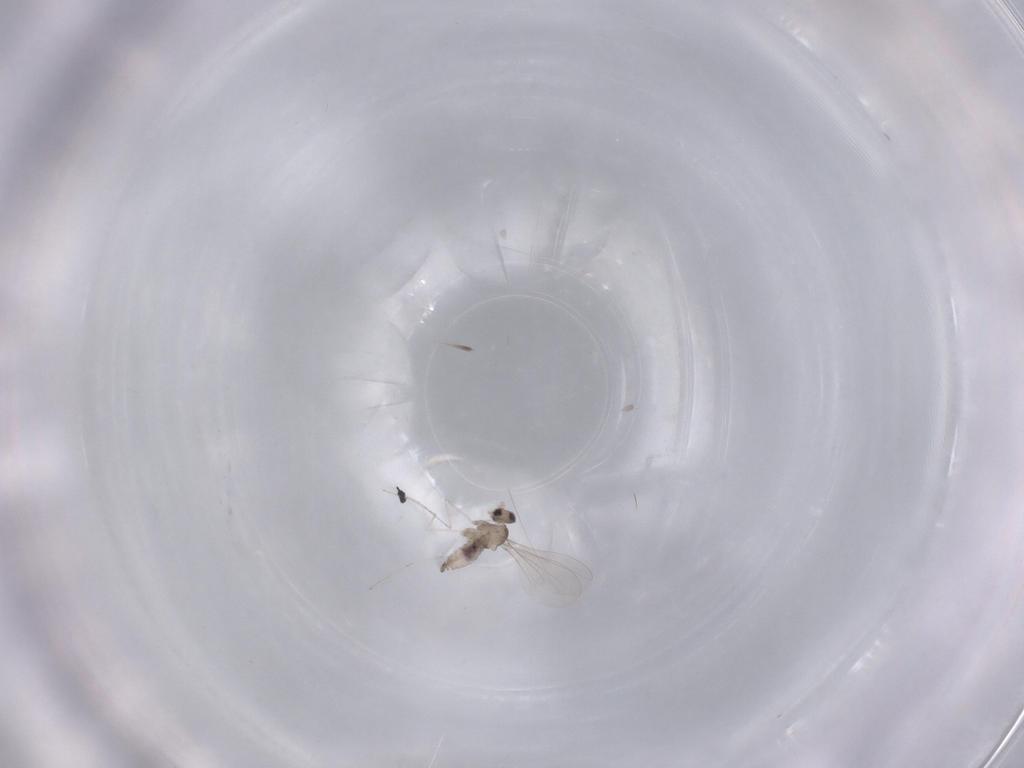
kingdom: Animalia
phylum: Arthropoda
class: Insecta
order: Diptera
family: Cecidomyiidae
